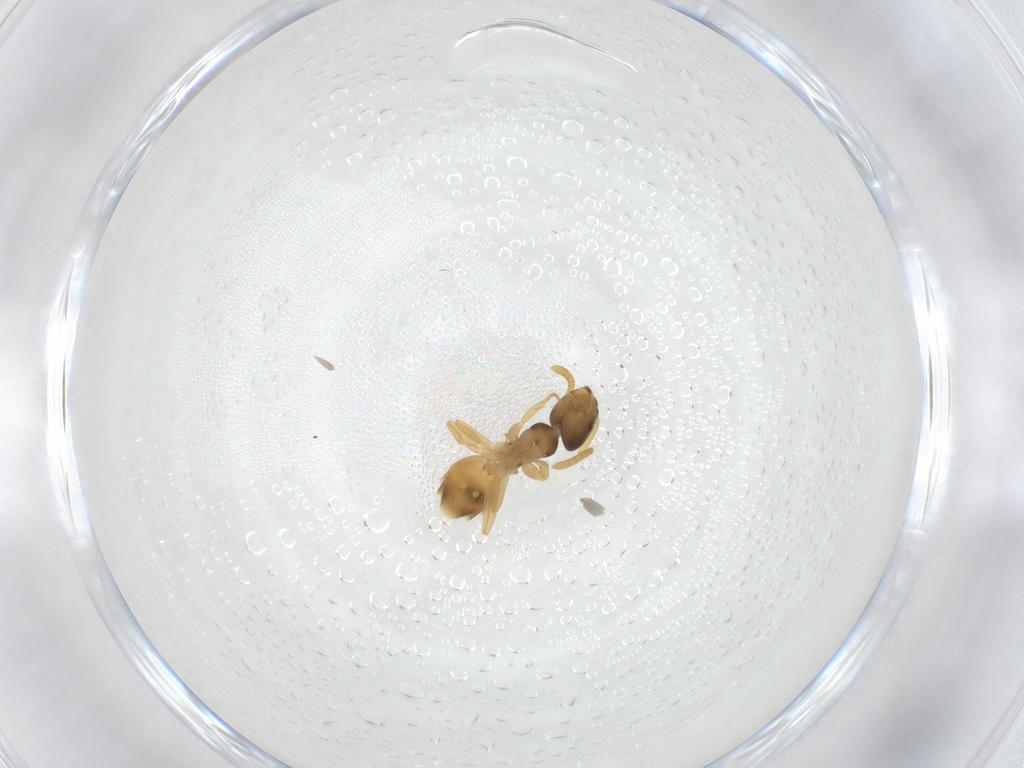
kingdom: Animalia
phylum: Arthropoda
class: Insecta
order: Hymenoptera
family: Formicidae
